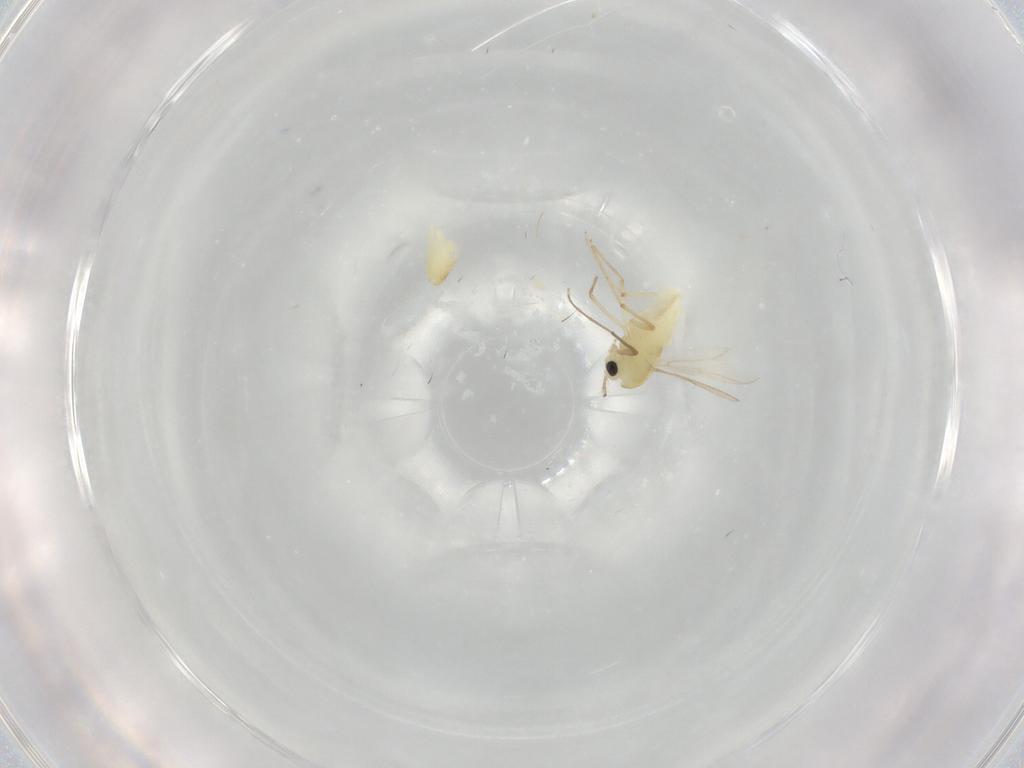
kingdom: Animalia
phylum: Arthropoda
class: Insecta
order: Diptera
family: Chironomidae
